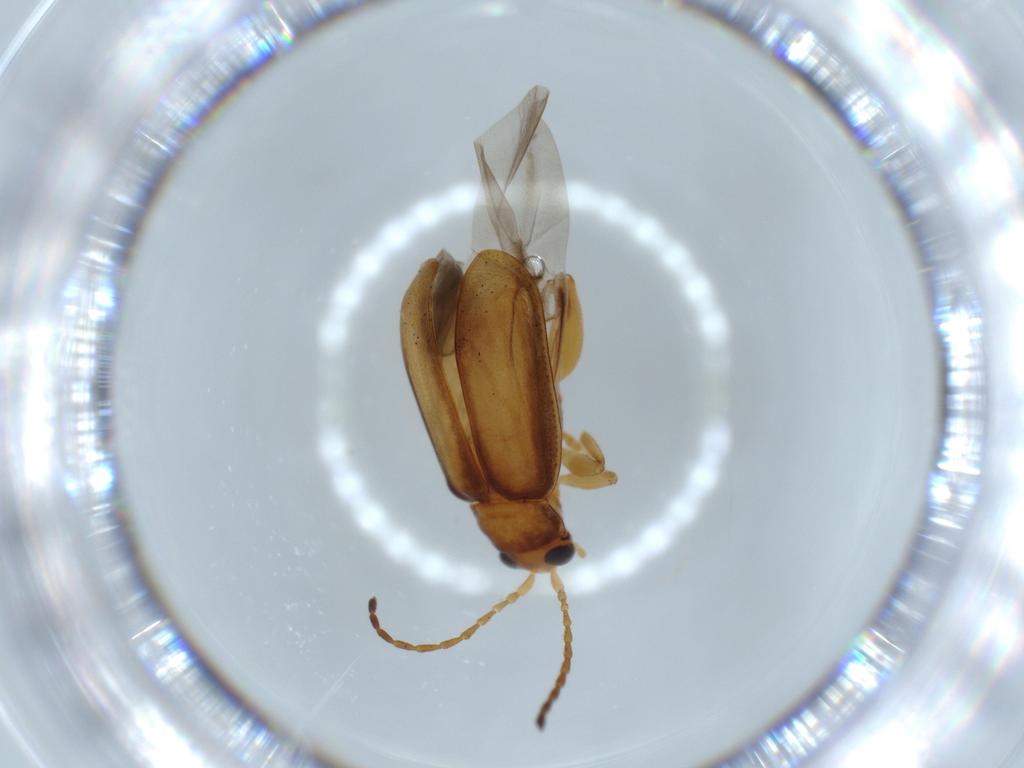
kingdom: Animalia
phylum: Arthropoda
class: Insecta
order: Coleoptera
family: Chrysomelidae
